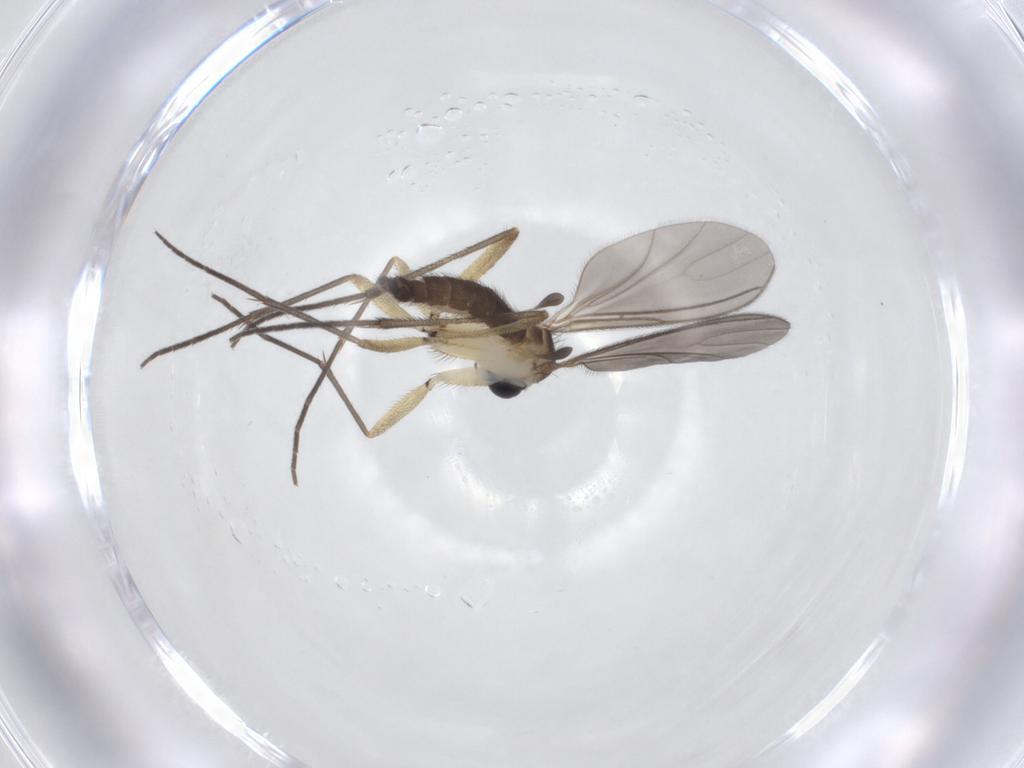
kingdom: Animalia
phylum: Arthropoda
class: Insecta
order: Diptera
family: Sciaridae
